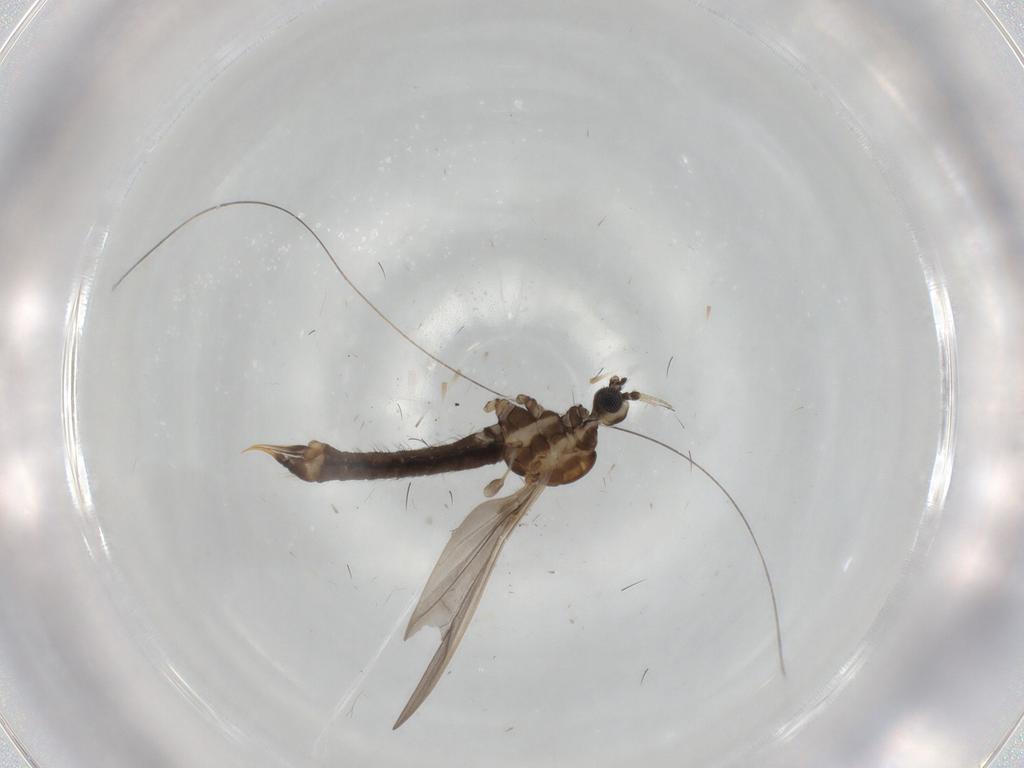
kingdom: Animalia
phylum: Arthropoda
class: Insecta
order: Diptera
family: Limoniidae
